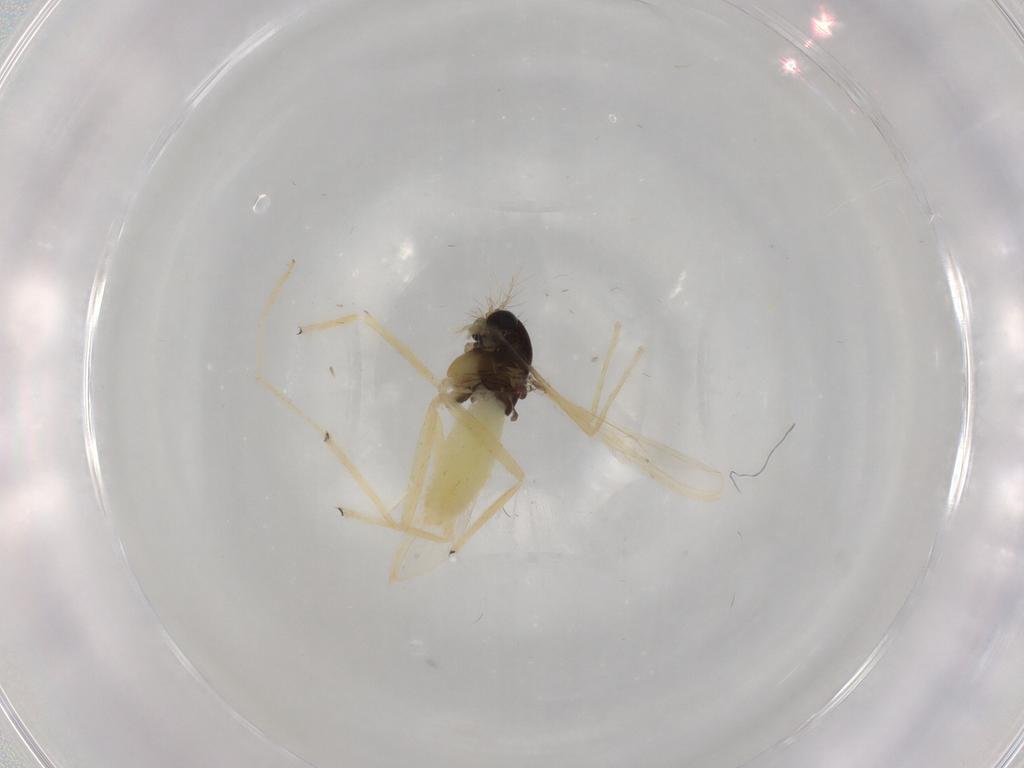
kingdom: Animalia
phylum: Arthropoda
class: Insecta
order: Diptera
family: Chironomidae
